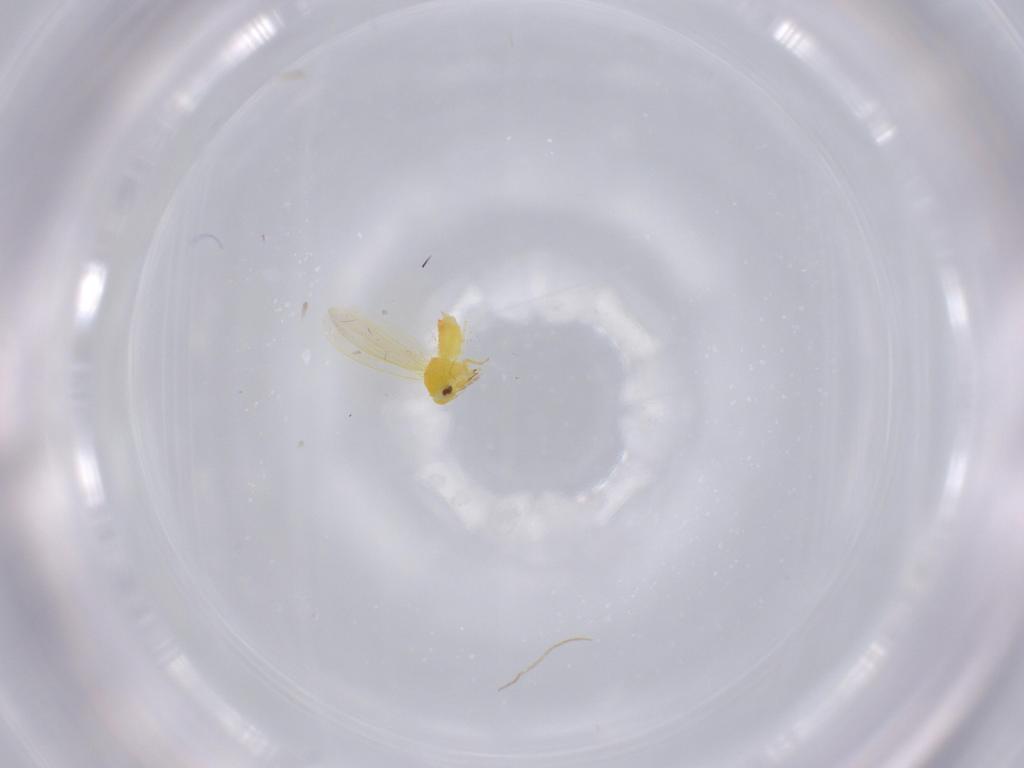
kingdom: Animalia
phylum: Arthropoda
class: Insecta
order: Hemiptera
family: Aleyrodidae
